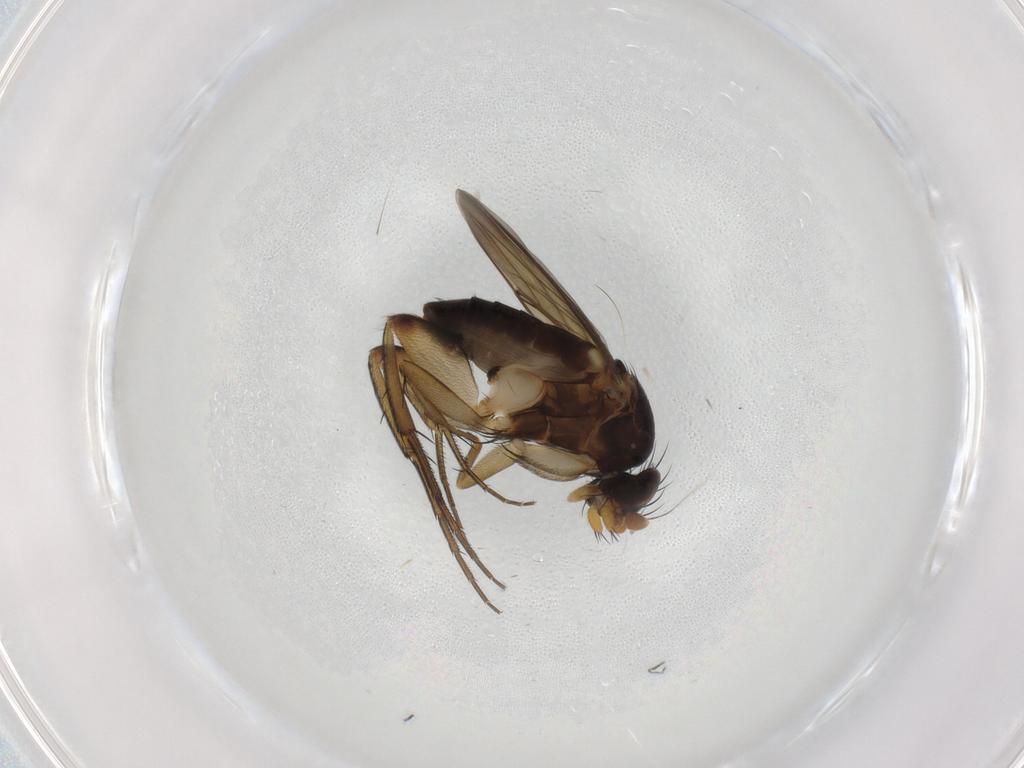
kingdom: Animalia
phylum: Arthropoda
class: Insecta
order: Diptera
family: Phoridae
